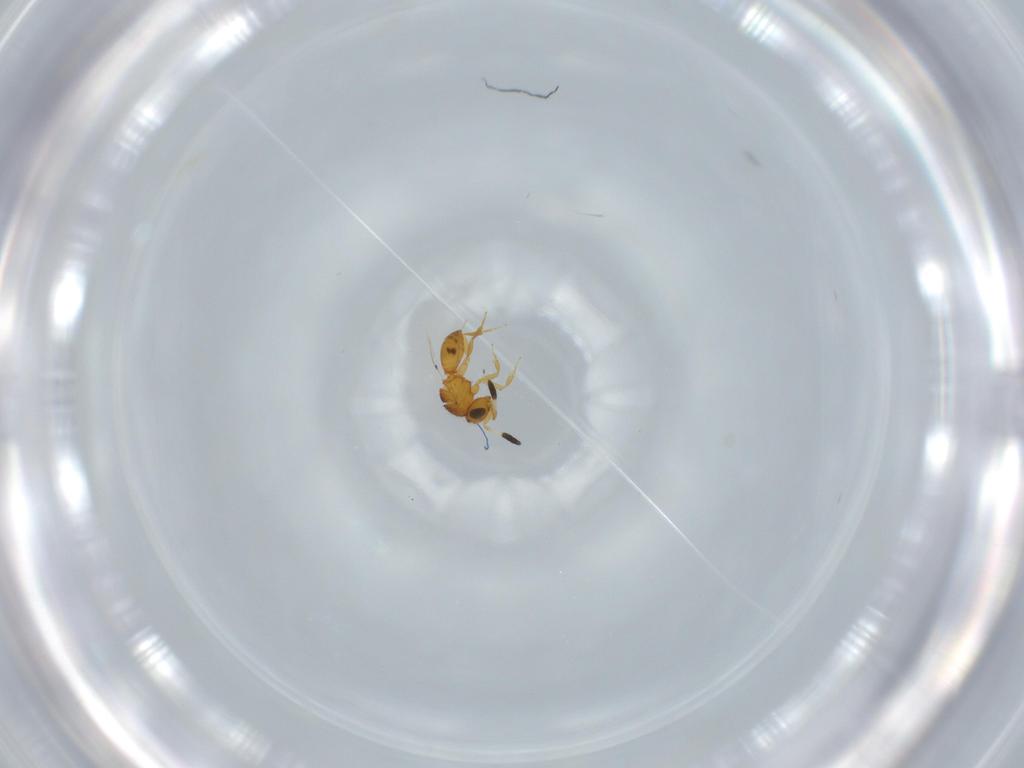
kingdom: Animalia
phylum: Arthropoda
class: Insecta
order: Hymenoptera
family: Scelionidae
